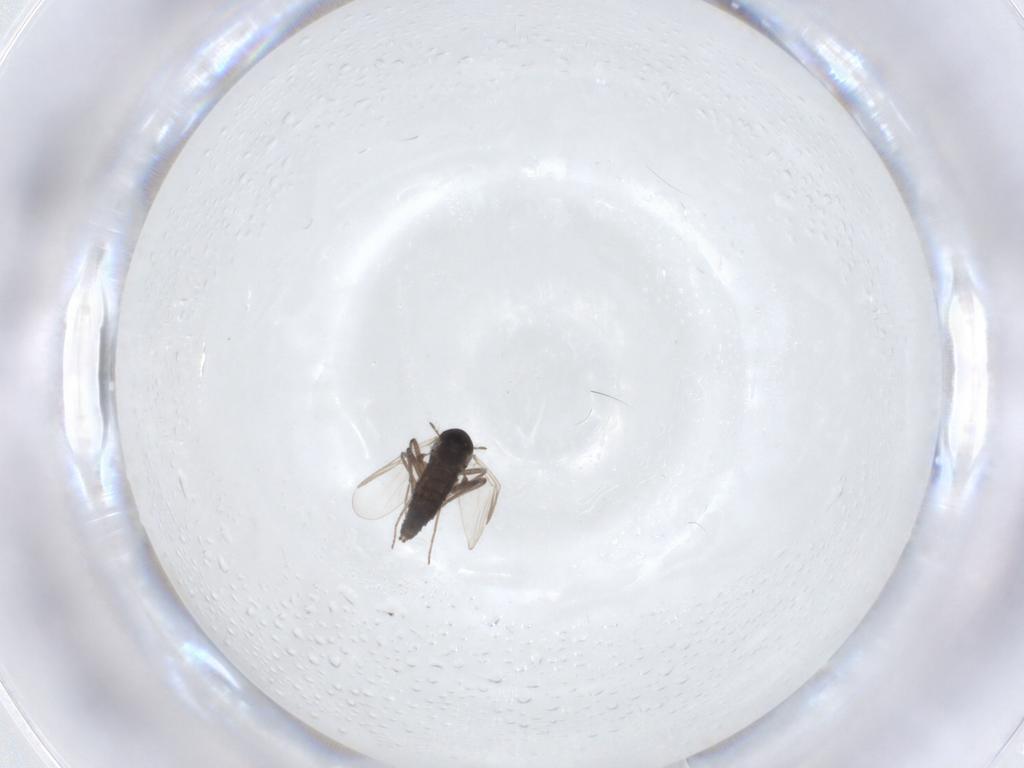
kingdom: Animalia
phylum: Arthropoda
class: Insecta
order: Diptera
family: Chironomidae
